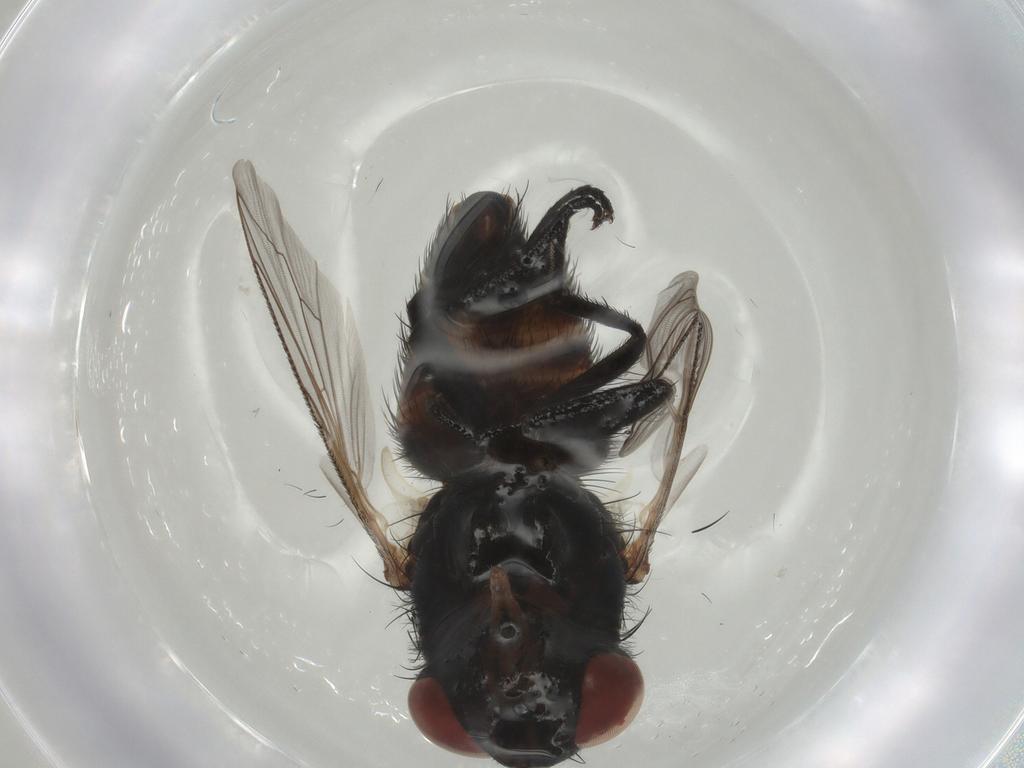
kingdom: Animalia
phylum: Arthropoda
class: Insecta
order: Diptera
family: Sarcophagidae
